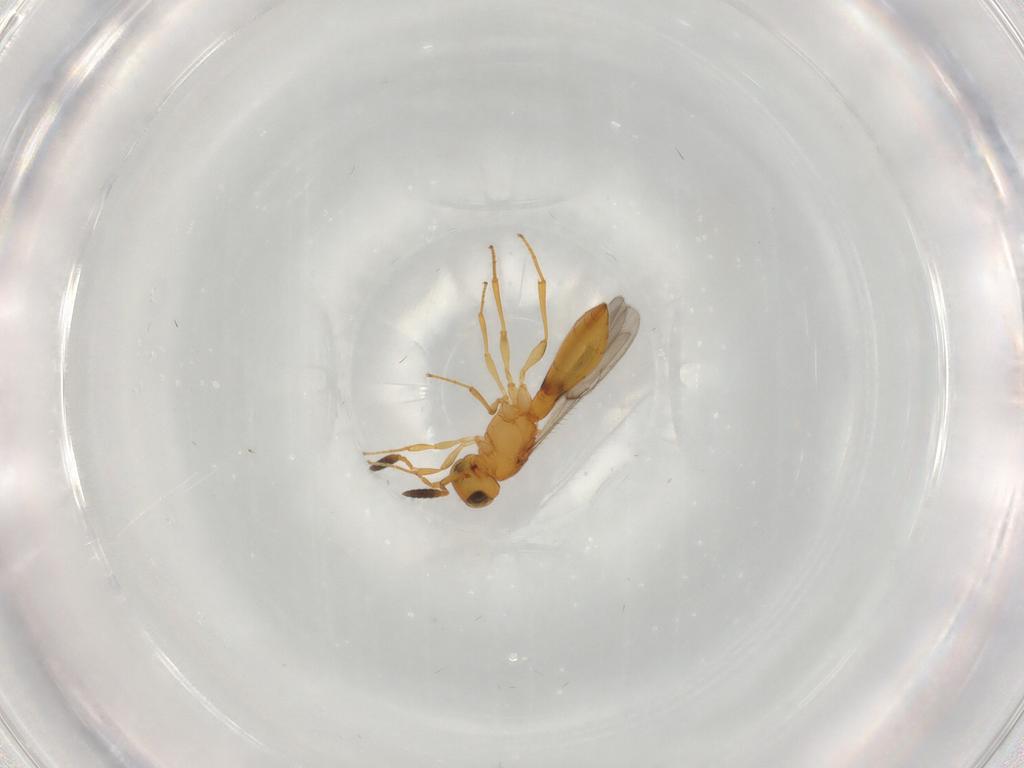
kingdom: Animalia
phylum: Arthropoda
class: Insecta
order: Hymenoptera
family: Scelionidae
